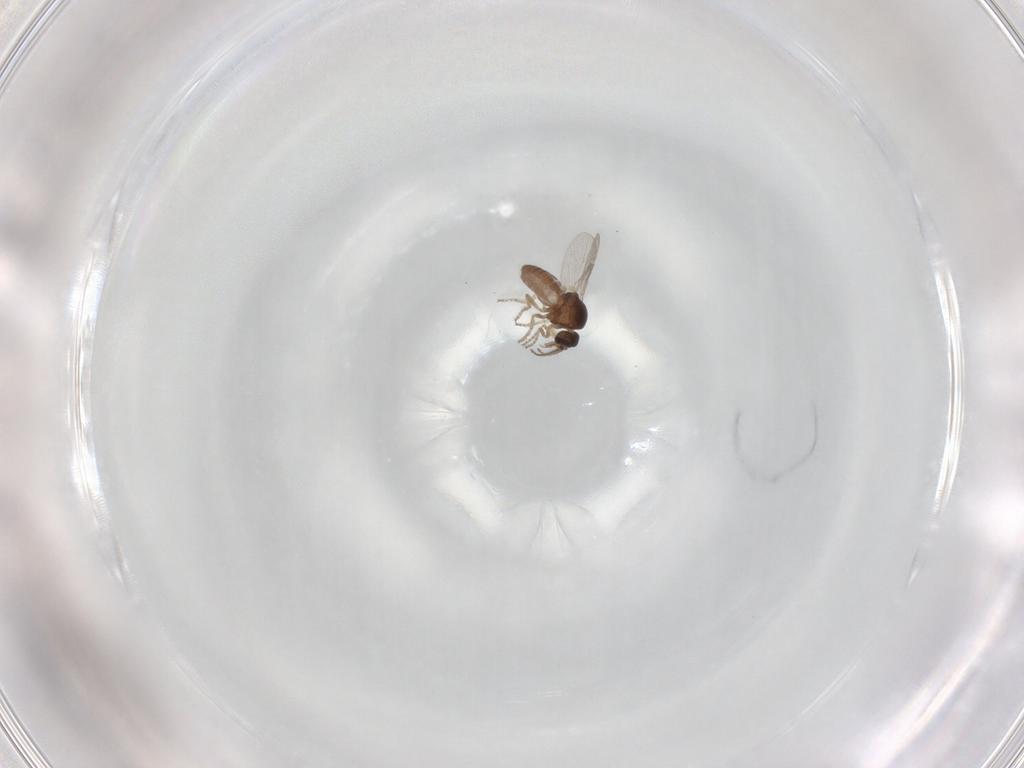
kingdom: Animalia
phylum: Arthropoda
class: Insecta
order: Diptera
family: Ceratopogonidae
